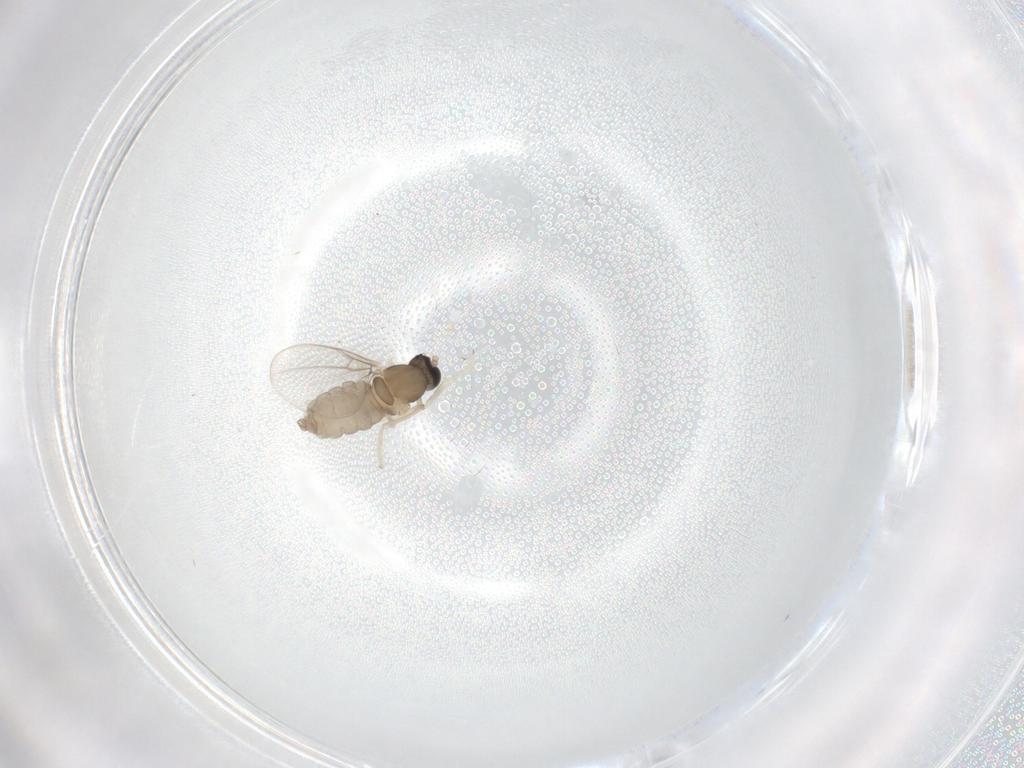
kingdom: Animalia
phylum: Arthropoda
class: Insecta
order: Diptera
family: Cecidomyiidae
